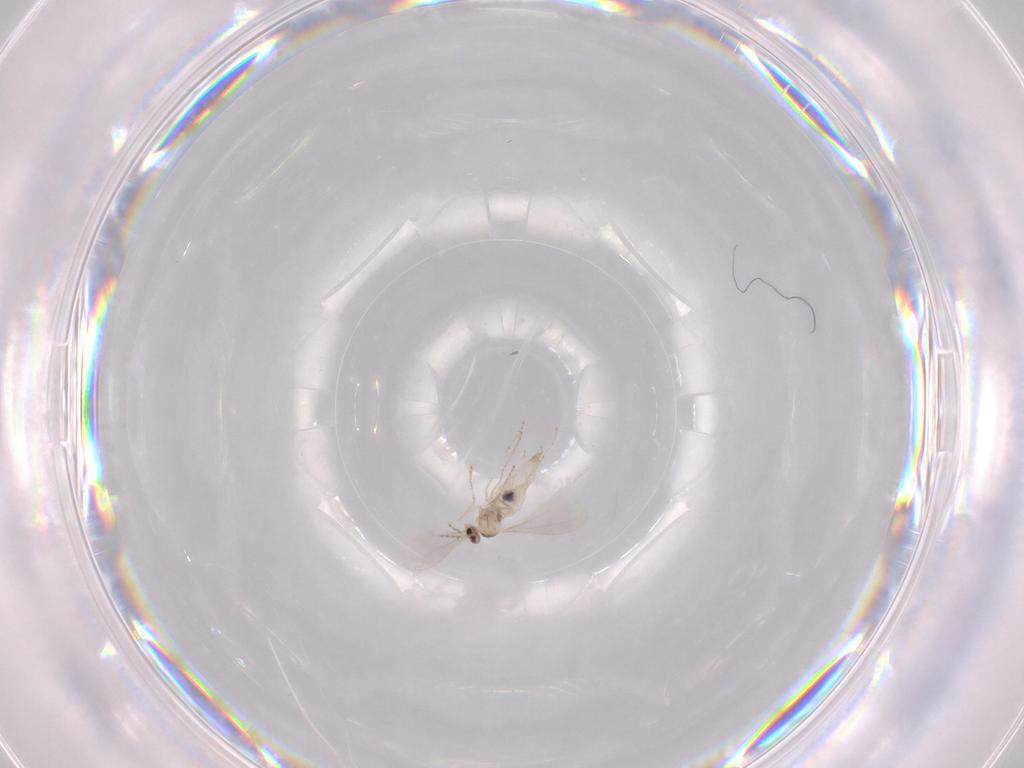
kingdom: Animalia
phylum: Arthropoda
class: Insecta
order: Diptera
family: Cecidomyiidae
